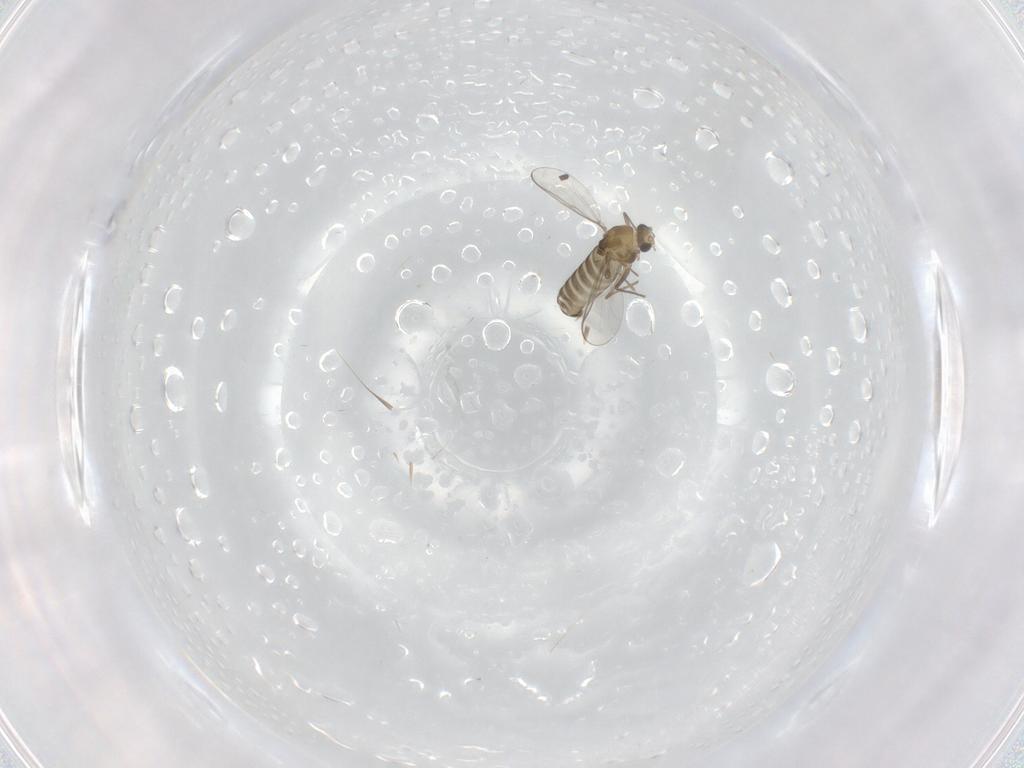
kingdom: Animalia
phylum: Arthropoda
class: Insecta
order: Diptera
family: Chironomidae
